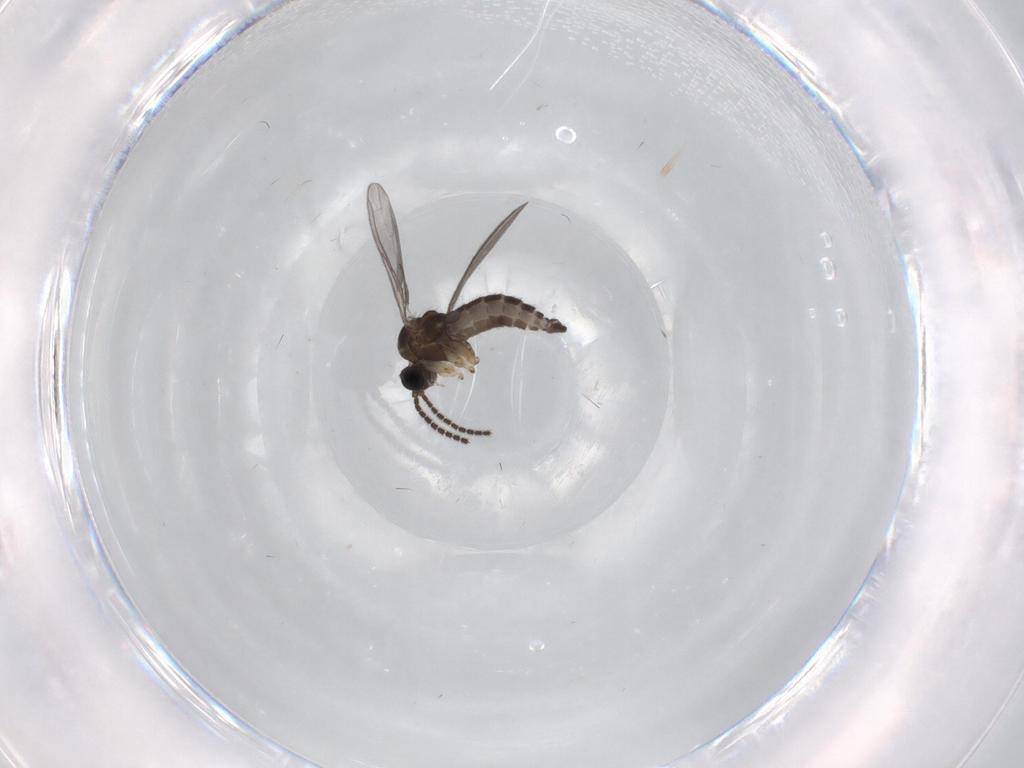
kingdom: Animalia
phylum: Arthropoda
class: Insecta
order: Diptera
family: Sciaridae
